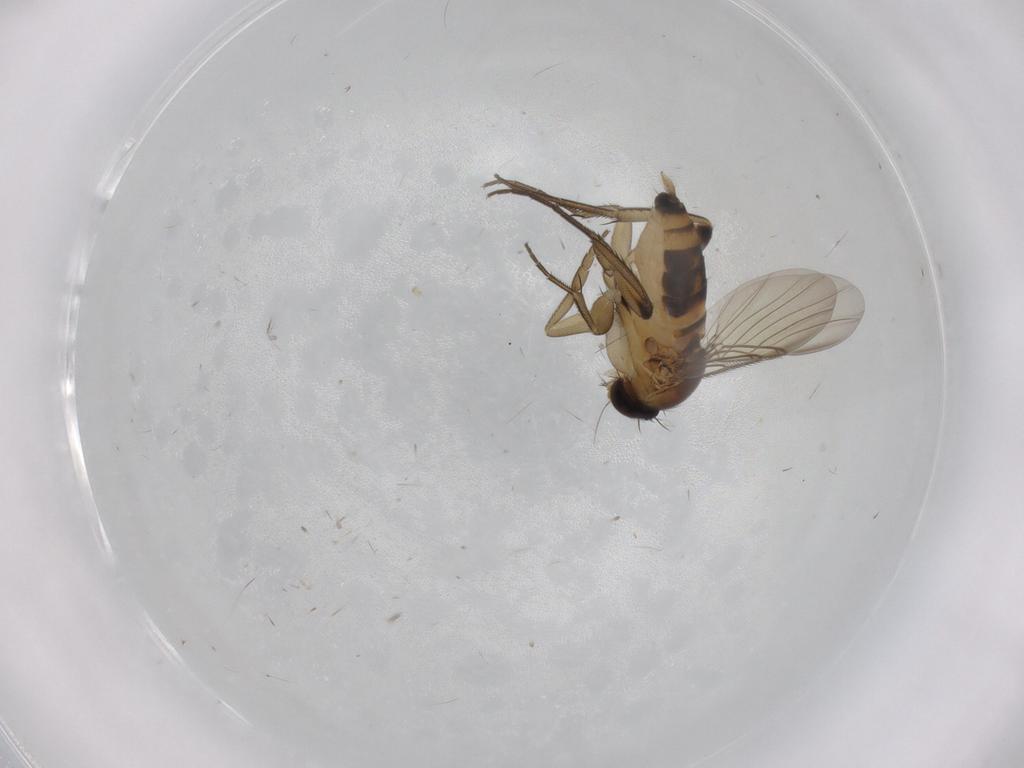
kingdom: Animalia
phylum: Arthropoda
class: Insecta
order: Diptera
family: Phoridae
